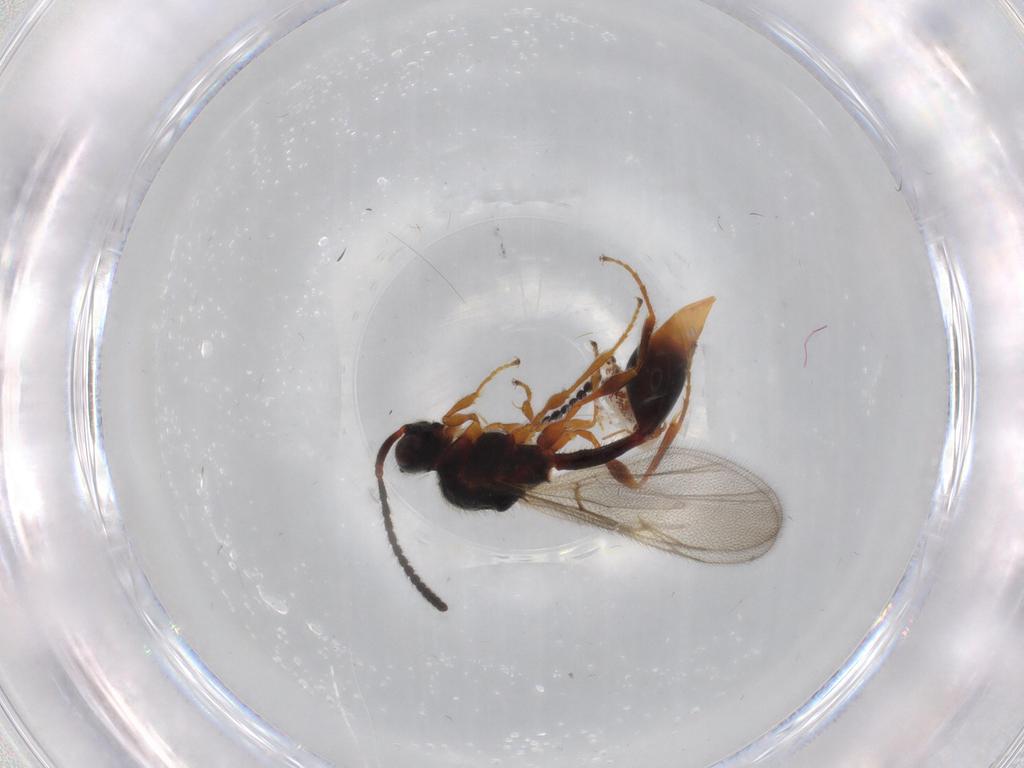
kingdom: Animalia
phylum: Arthropoda
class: Insecta
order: Hymenoptera
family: Diapriidae
